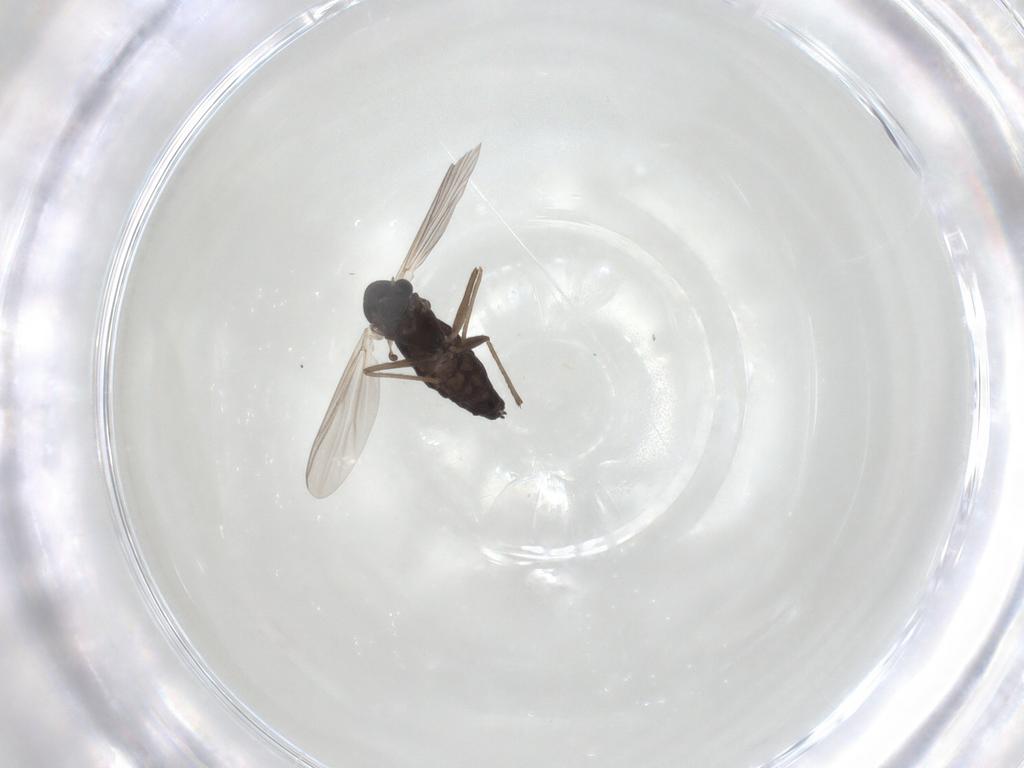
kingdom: Animalia
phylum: Arthropoda
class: Insecta
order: Diptera
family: Chironomidae
